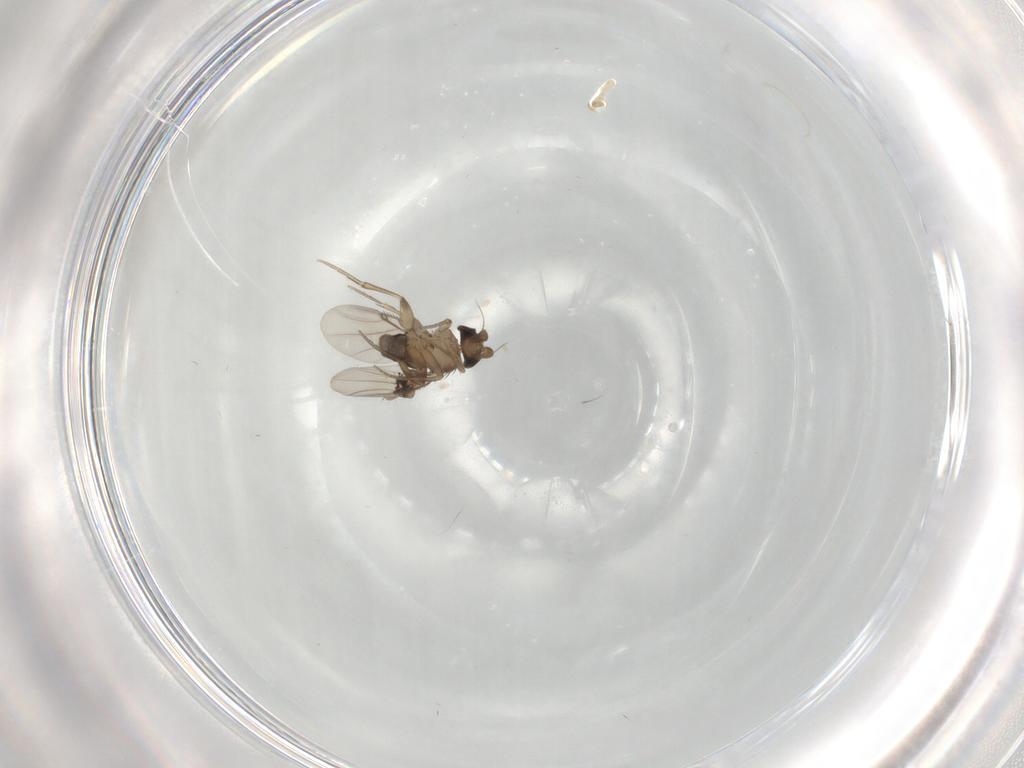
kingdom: Animalia
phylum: Arthropoda
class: Insecta
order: Diptera
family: Phoridae
